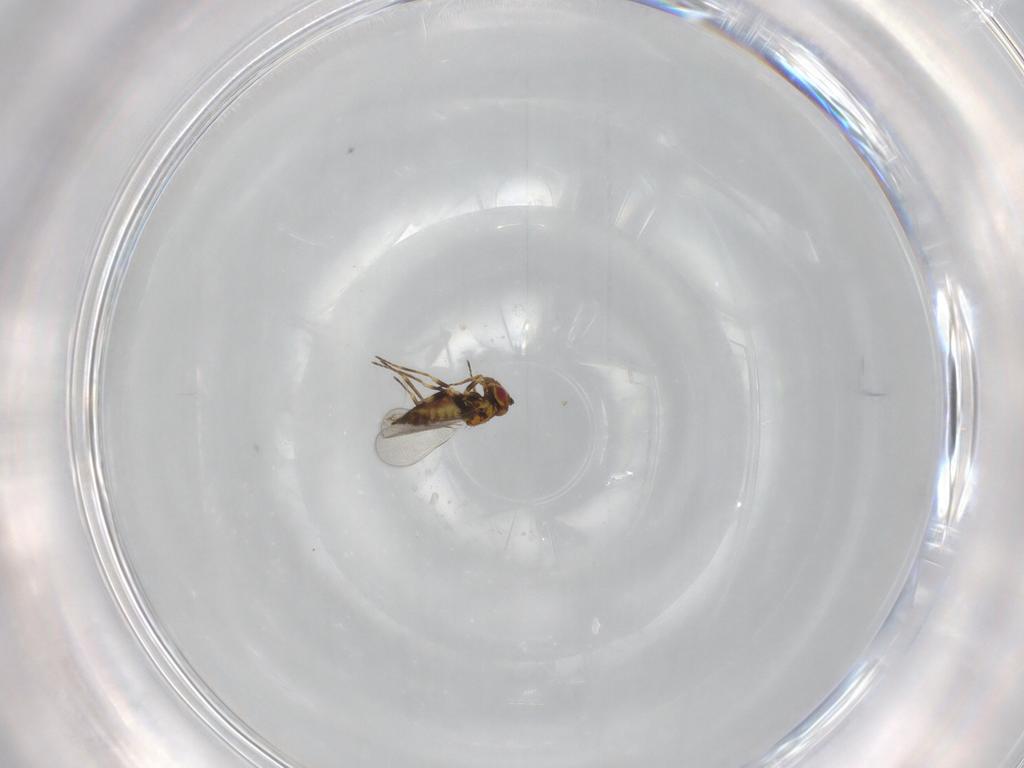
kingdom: Animalia
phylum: Arthropoda
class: Insecta
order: Hymenoptera
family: Eulophidae
